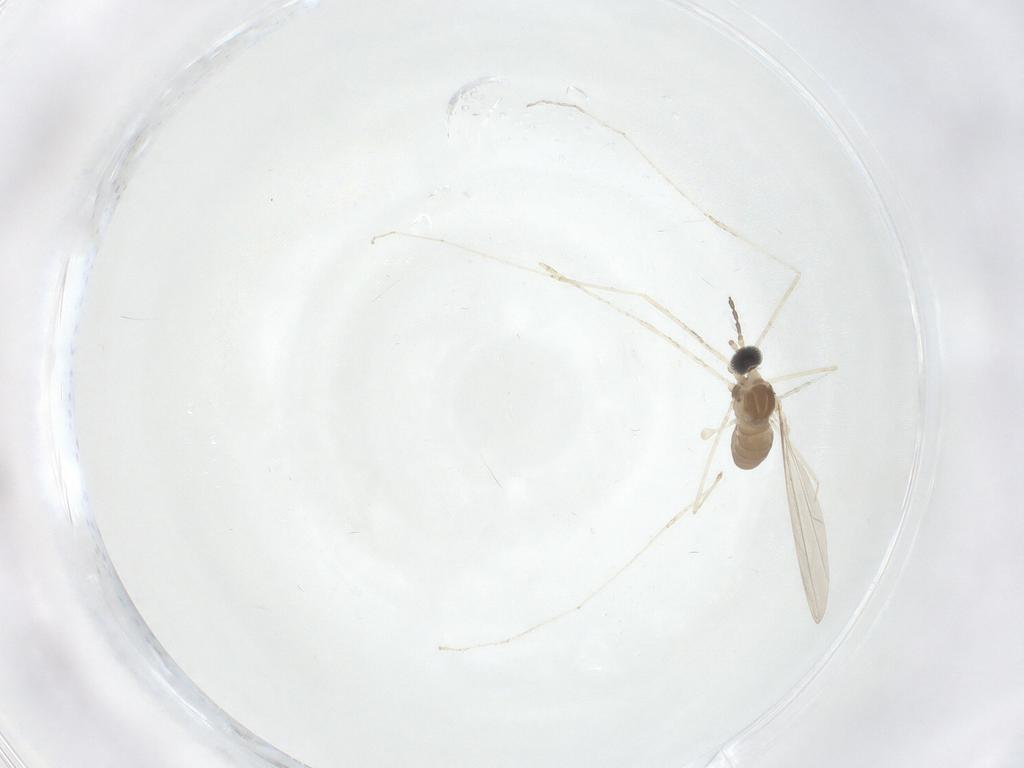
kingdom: Animalia
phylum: Arthropoda
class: Insecta
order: Diptera
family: Cecidomyiidae
